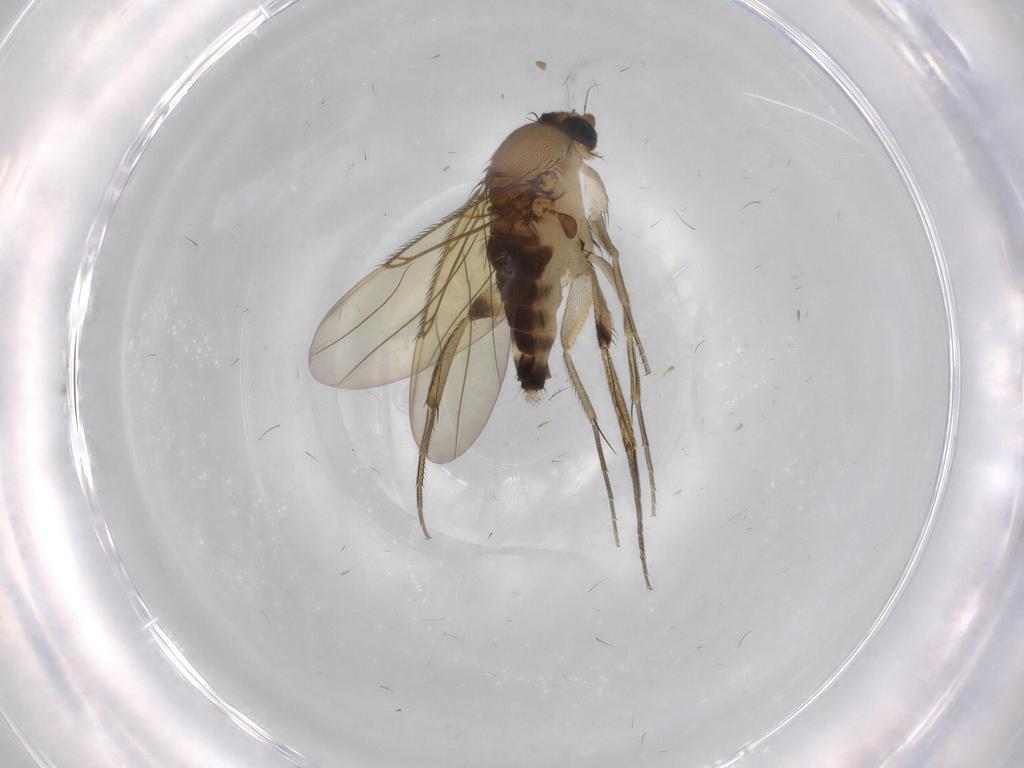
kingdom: Animalia
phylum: Arthropoda
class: Insecta
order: Diptera
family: Phoridae
